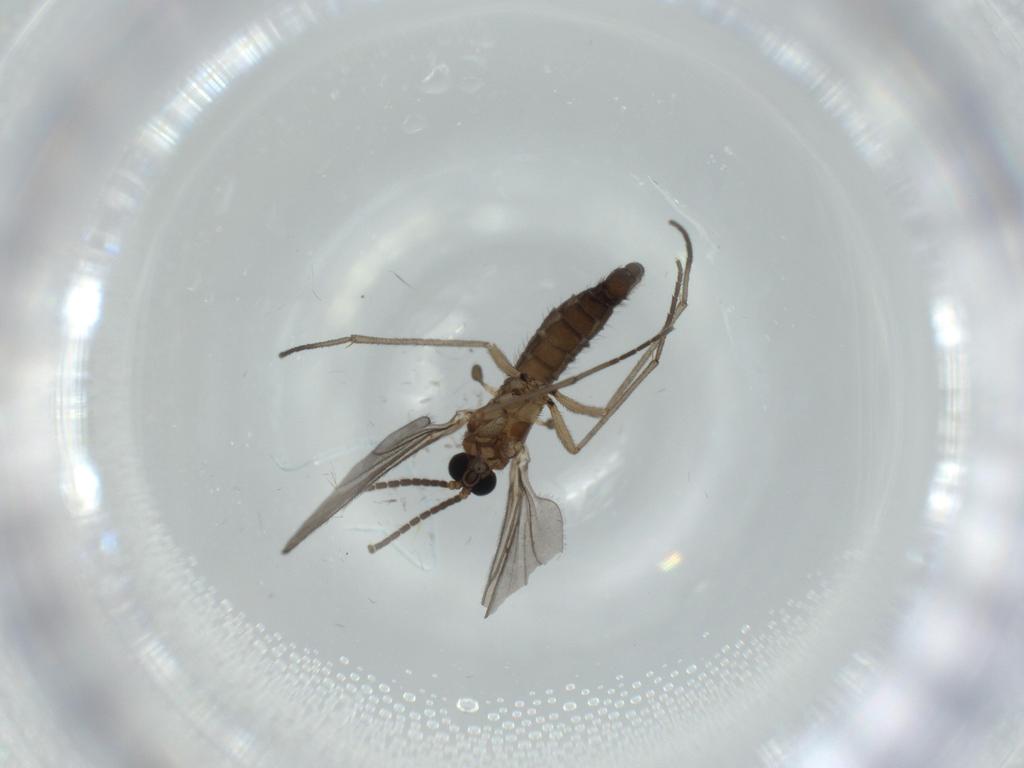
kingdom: Animalia
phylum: Arthropoda
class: Insecta
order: Diptera
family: Sciaridae
